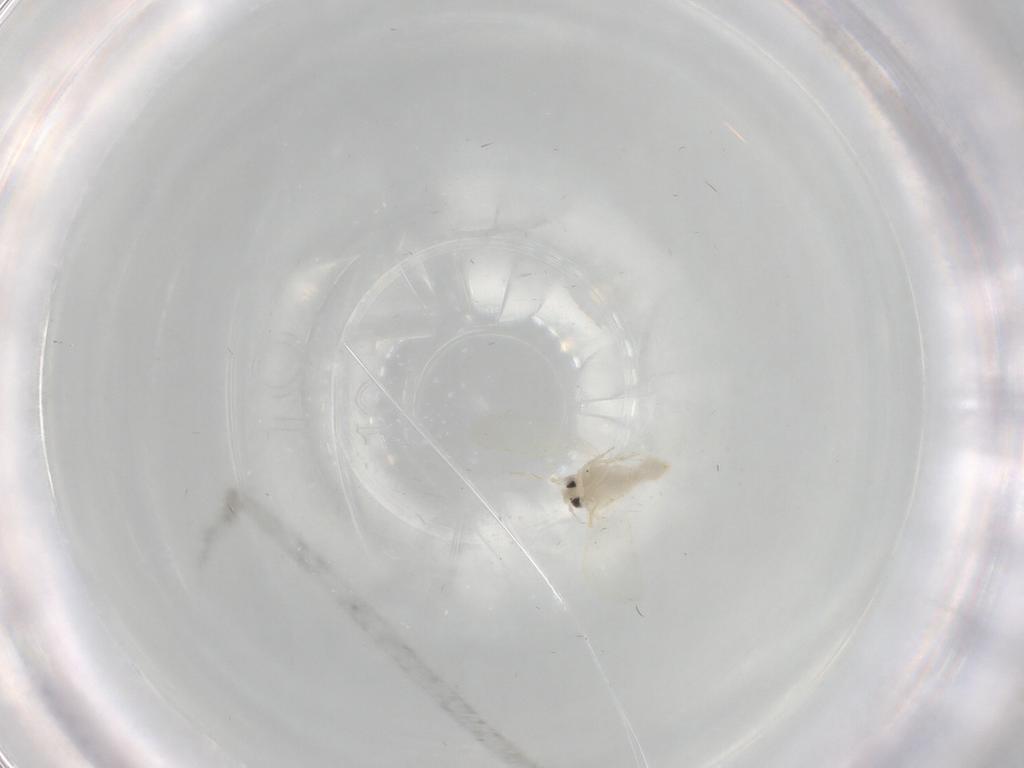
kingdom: Animalia
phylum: Arthropoda
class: Insecta
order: Hemiptera
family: Aleyrodidae
